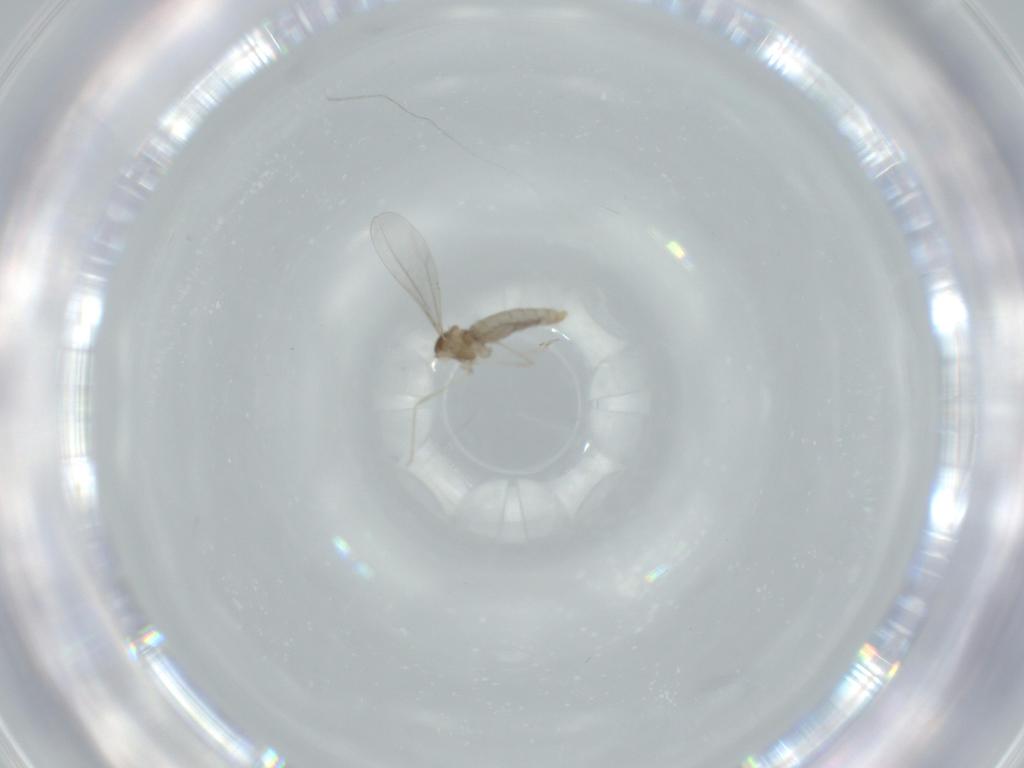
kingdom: Animalia
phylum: Arthropoda
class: Insecta
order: Diptera
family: Cecidomyiidae
